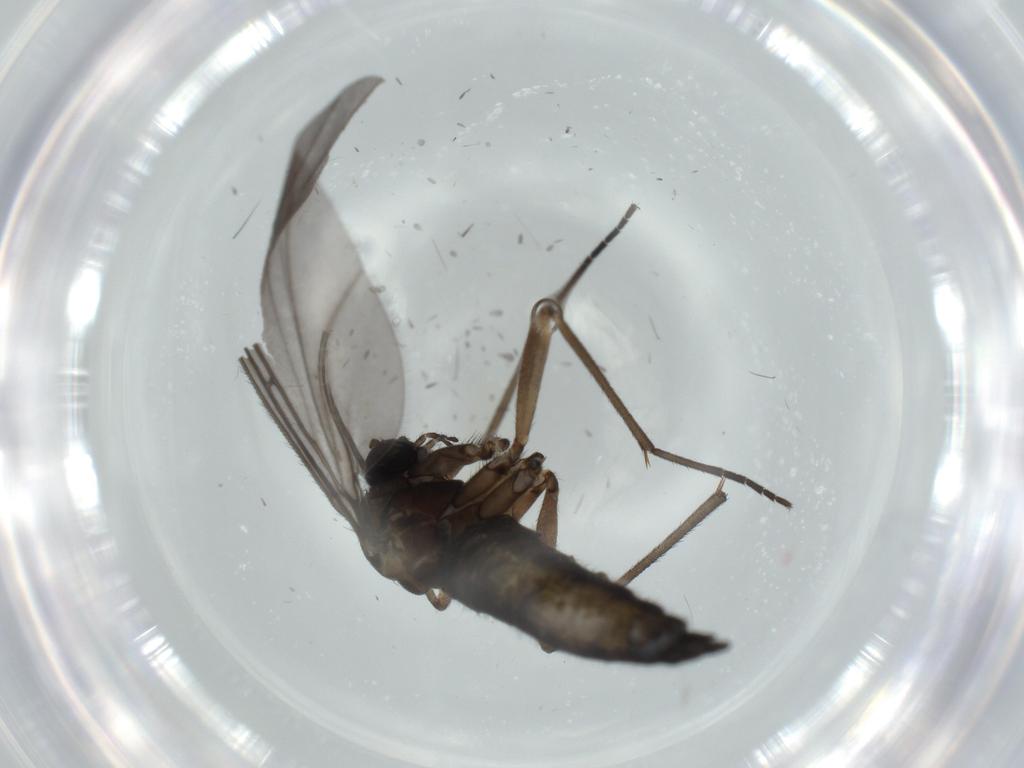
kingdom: Animalia
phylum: Arthropoda
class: Insecta
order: Diptera
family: Sciaridae
